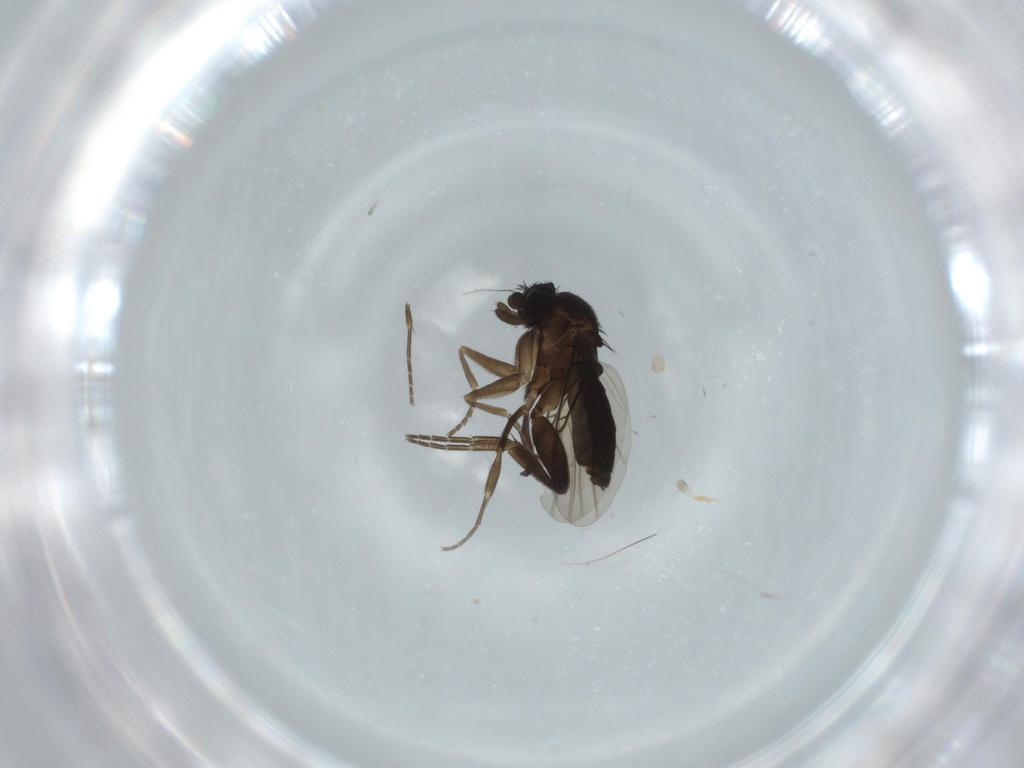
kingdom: Animalia
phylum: Arthropoda
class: Insecta
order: Diptera
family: Phoridae
